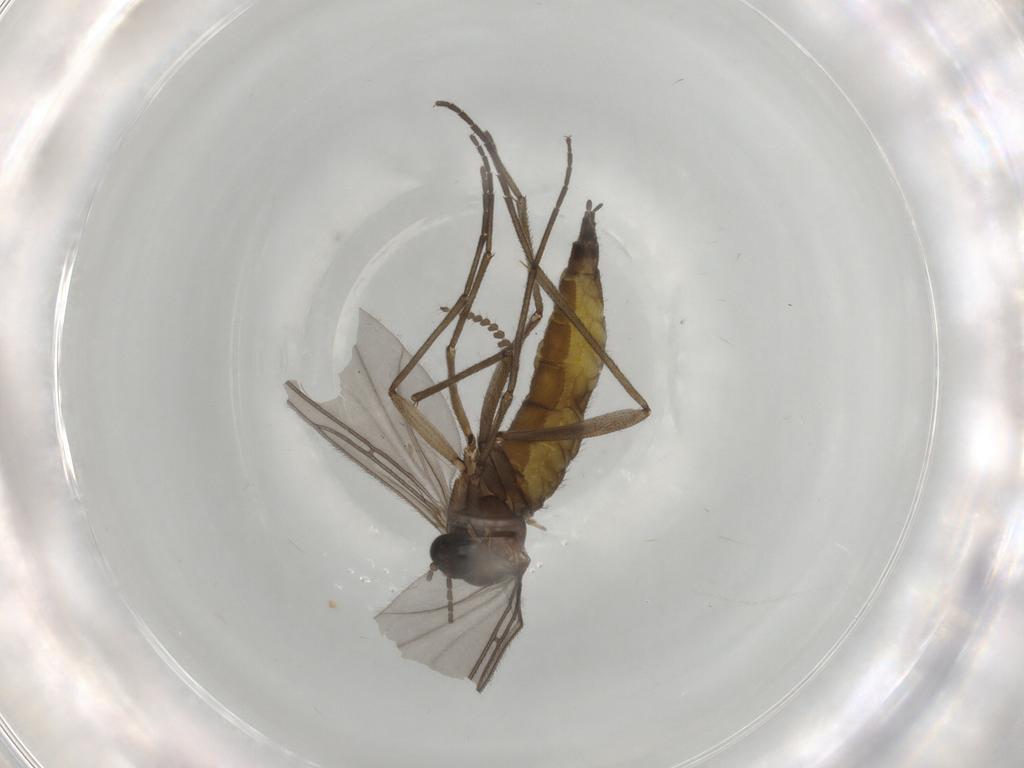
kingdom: Animalia
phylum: Arthropoda
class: Insecta
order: Diptera
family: Sciaridae
